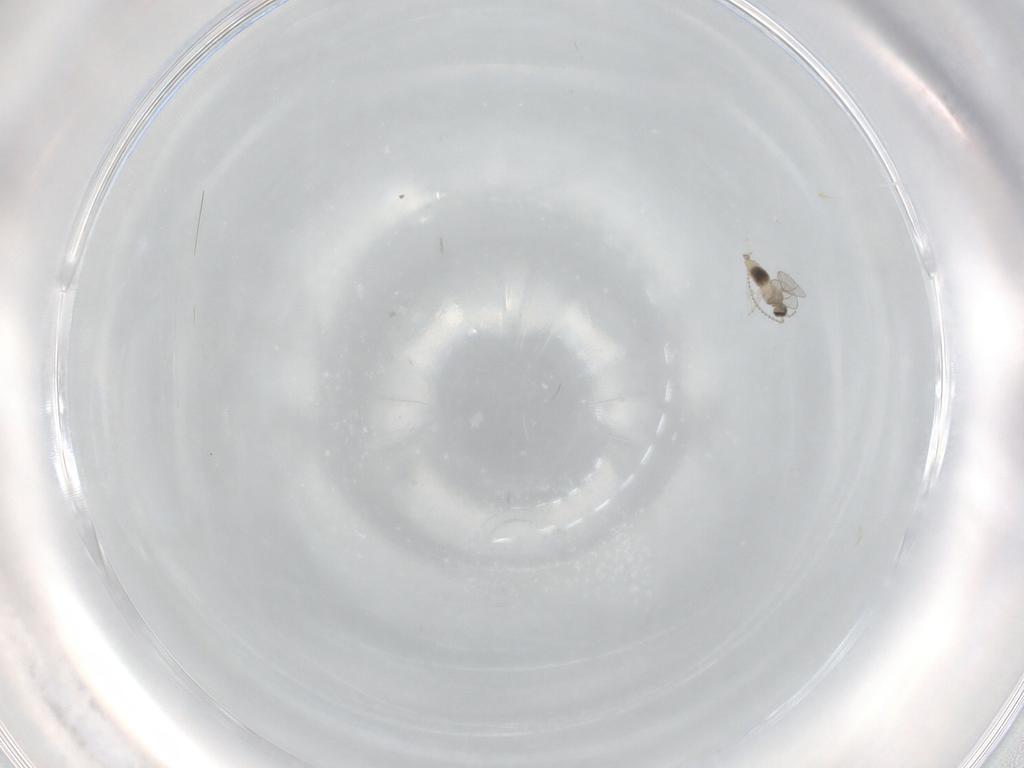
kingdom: Animalia
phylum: Arthropoda
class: Insecta
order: Diptera
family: Cecidomyiidae
